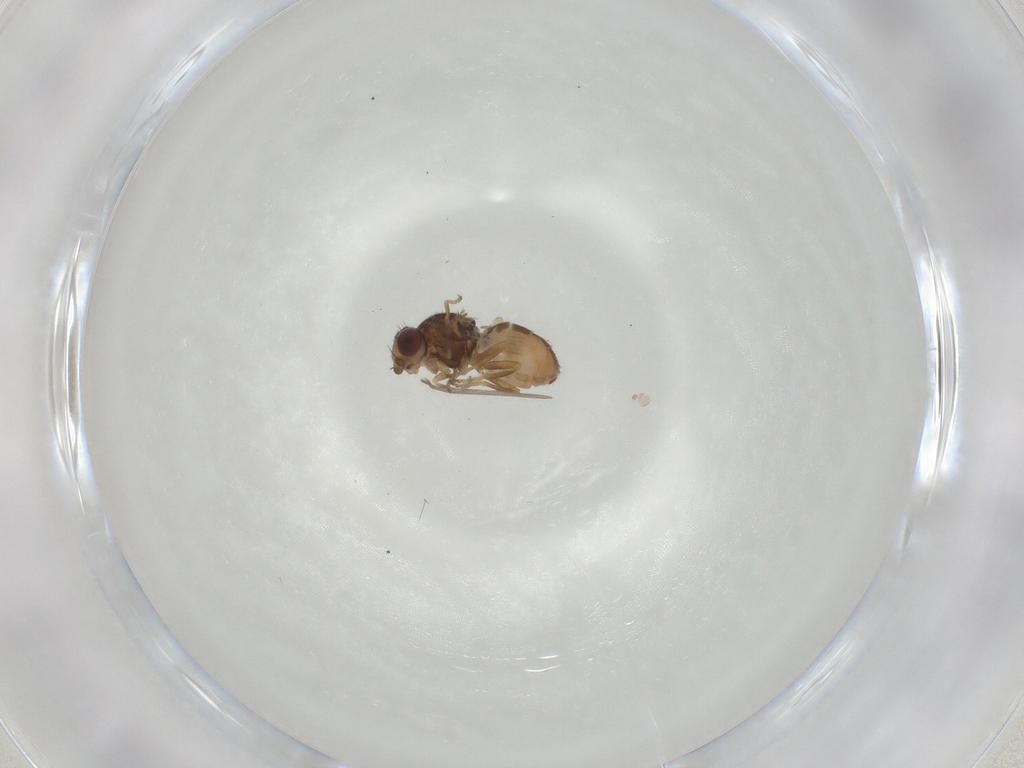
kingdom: Animalia
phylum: Arthropoda
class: Insecta
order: Diptera
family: Chloropidae
